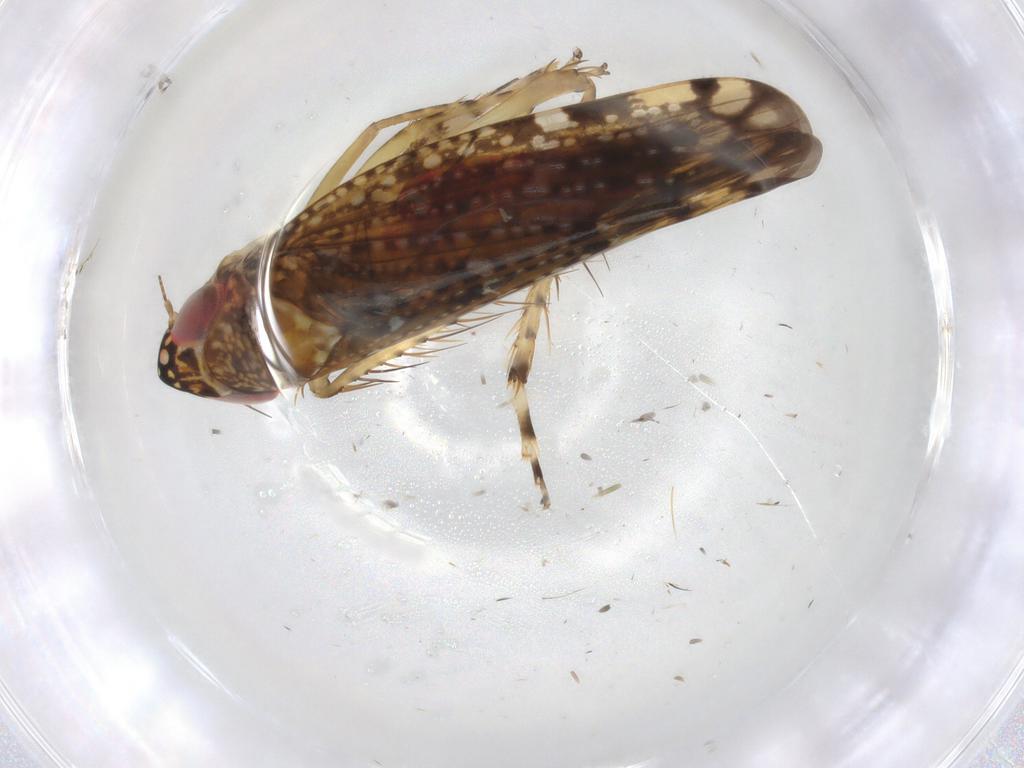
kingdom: Animalia
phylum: Arthropoda
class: Insecta
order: Hemiptera
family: Cicadellidae
